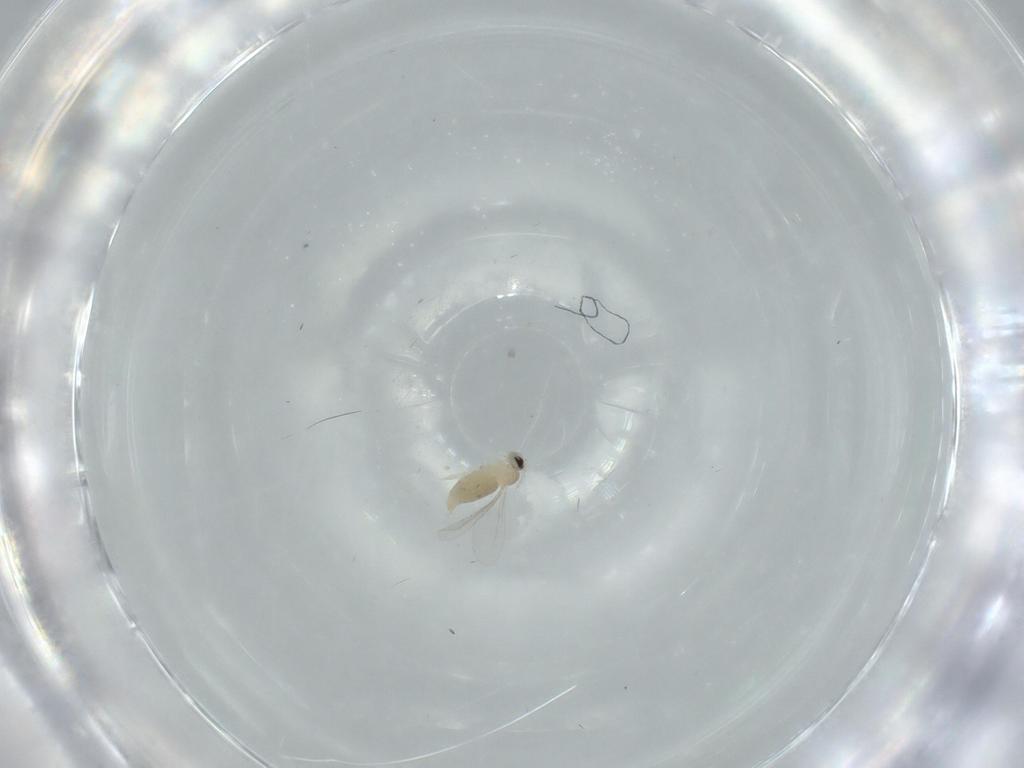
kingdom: Animalia
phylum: Arthropoda
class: Insecta
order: Diptera
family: Cecidomyiidae
